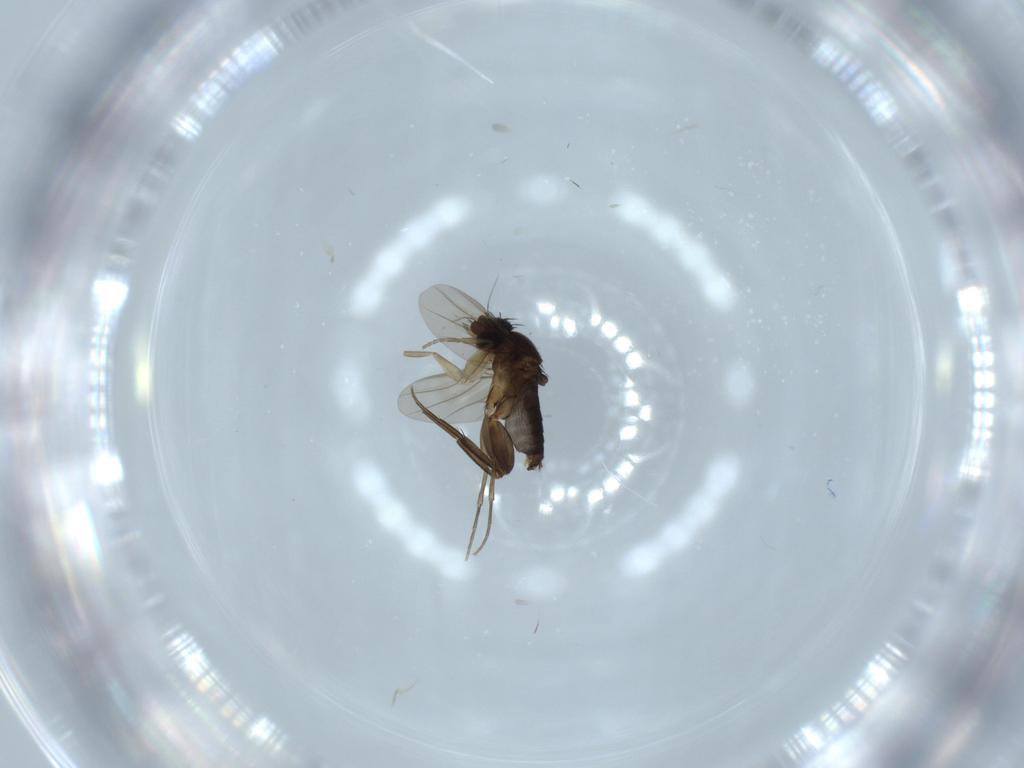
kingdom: Animalia
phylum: Arthropoda
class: Insecta
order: Diptera
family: Phoridae
